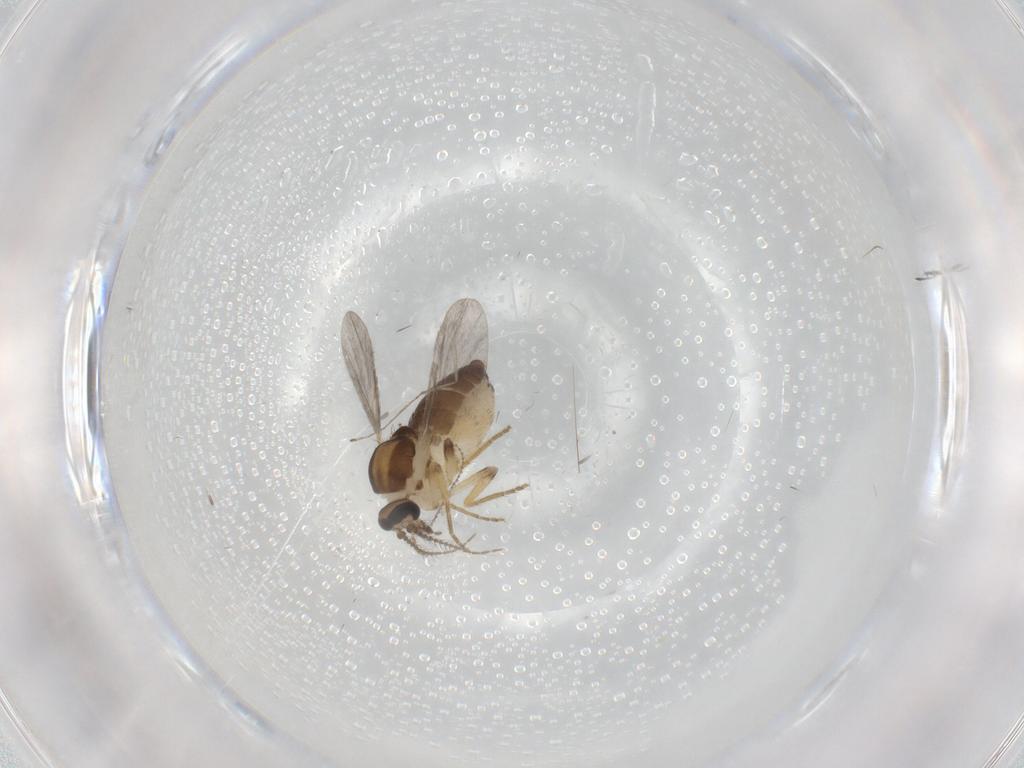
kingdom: Animalia
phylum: Arthropoda
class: Insecta
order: Diptera
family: Cecidomyiidae
